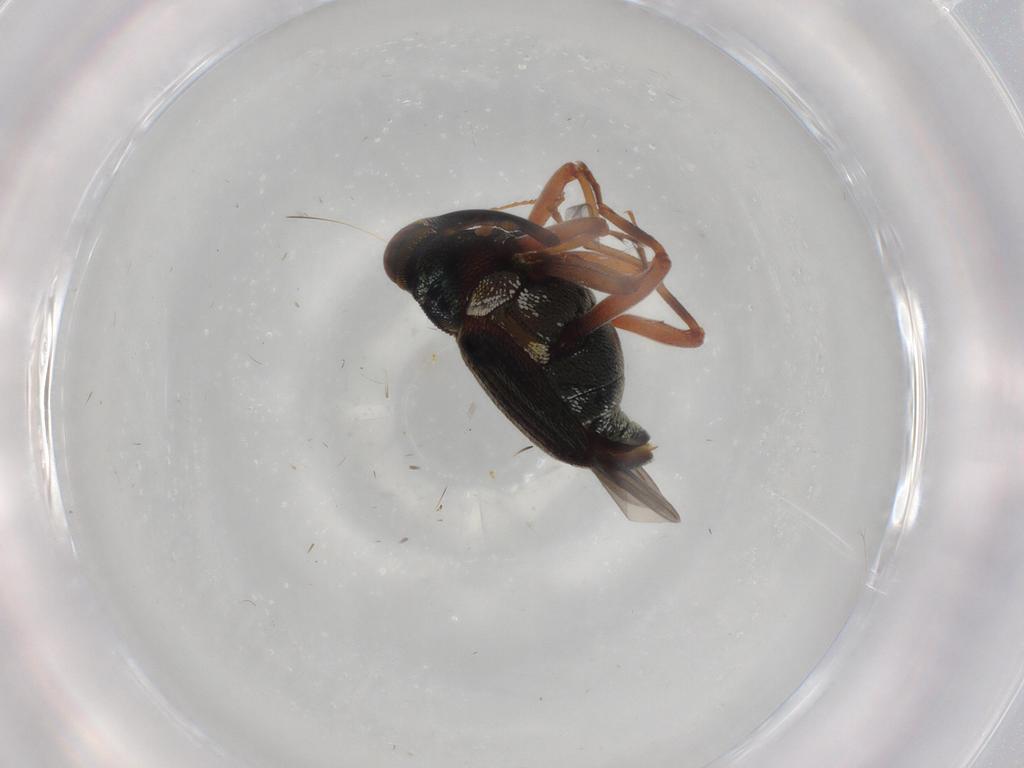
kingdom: Animalia
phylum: Arthropoda
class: Insecta
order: Coleoptera
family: Curculionidae
